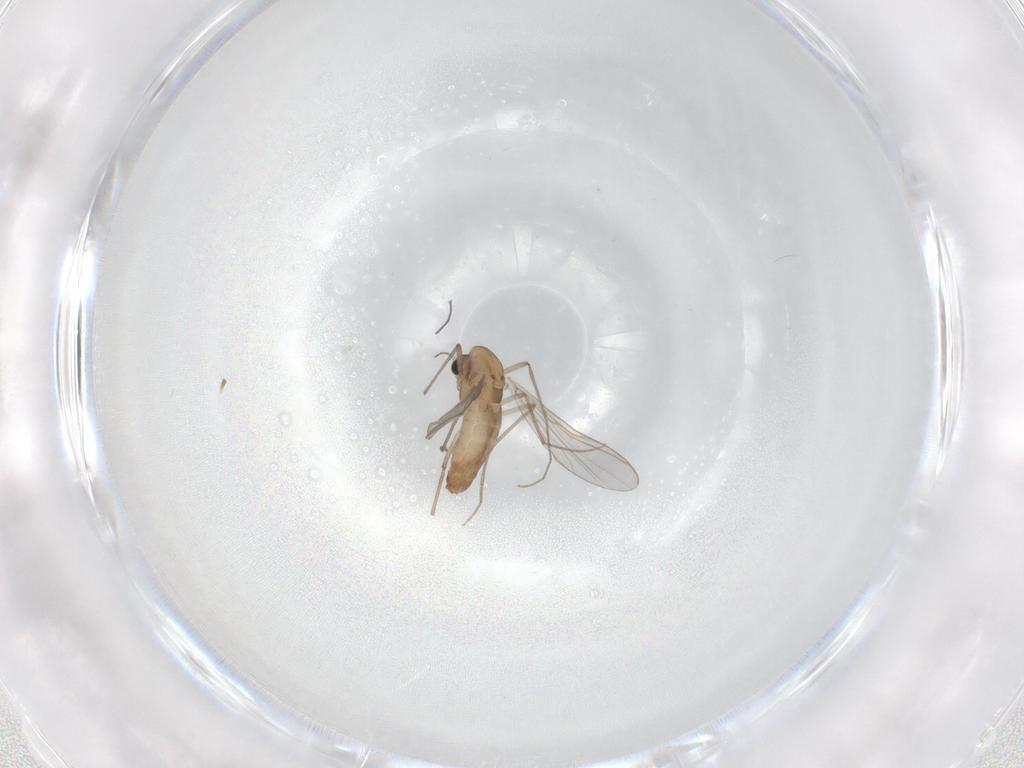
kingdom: Animalia
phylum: Arthropoda
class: Insecta
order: Diptera
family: Chironomidae
